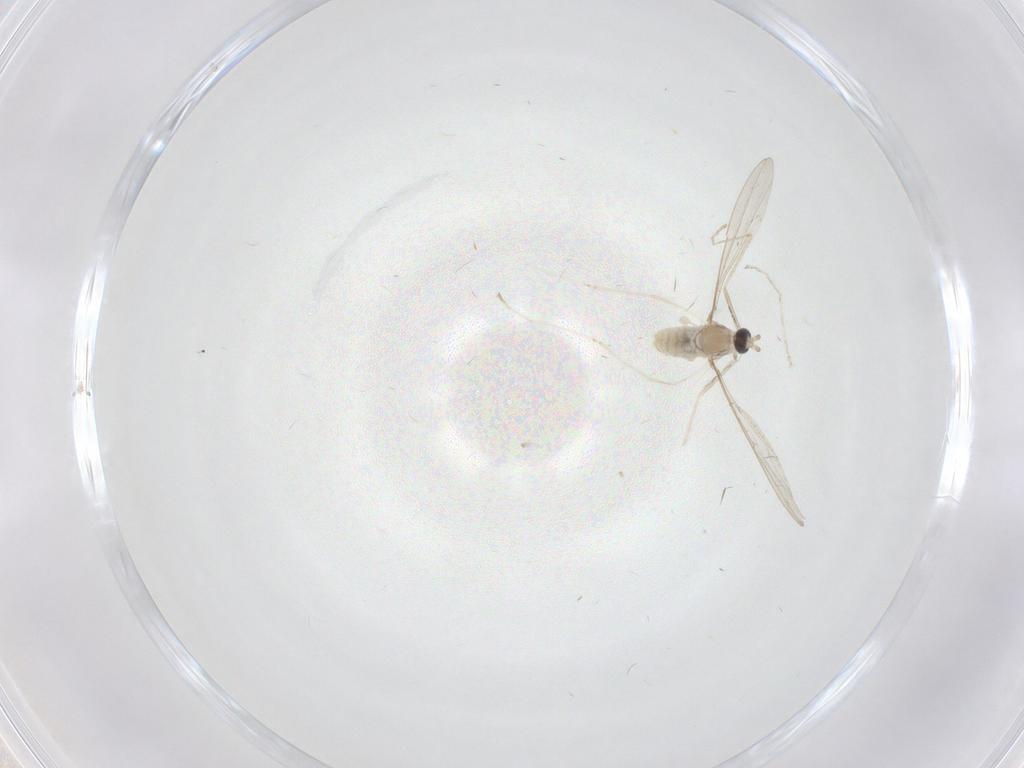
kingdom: Animalia
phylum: Arthropoda
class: Insecta
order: Diptera
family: Cecidomyiidae
